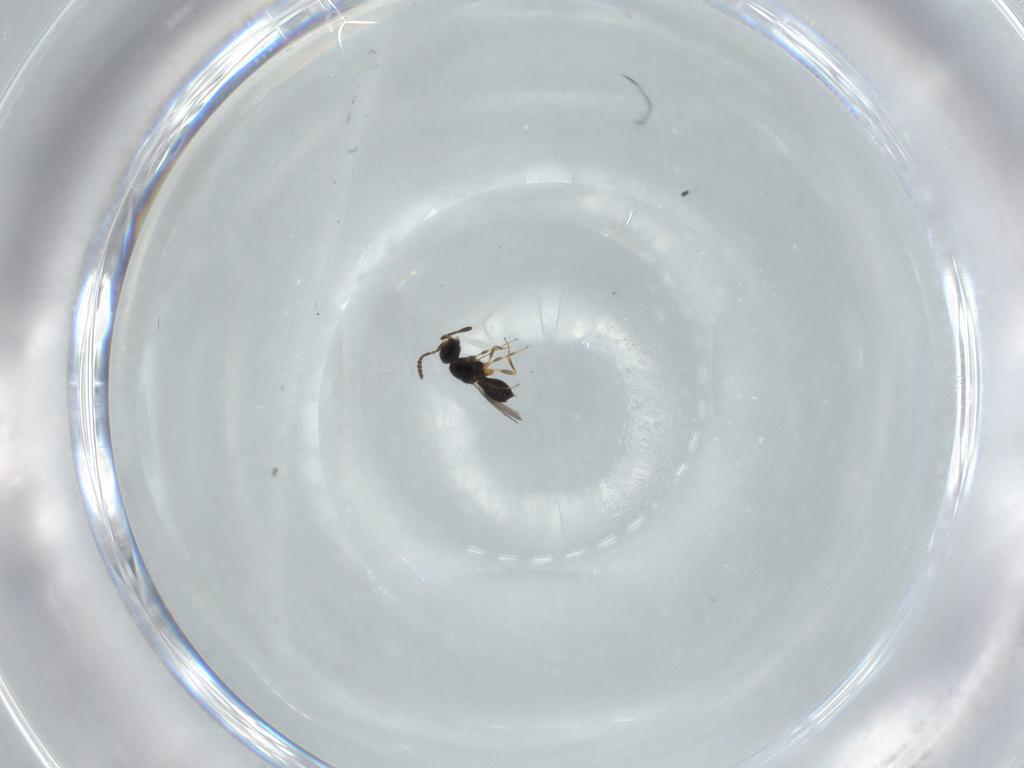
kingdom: Animalia
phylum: Arthropoda
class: Insecta
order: Hymenoptera
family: Scelionidae
